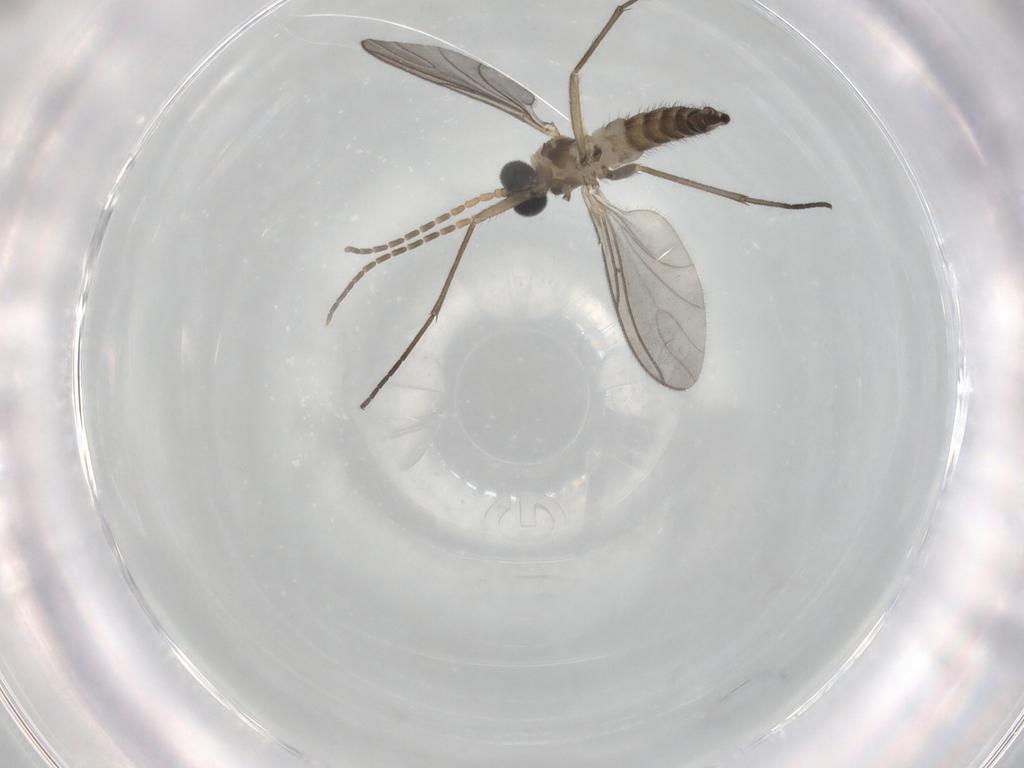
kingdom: Animalia
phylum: Arthropoda
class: Insecta
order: Diptera
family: Sciaridae
